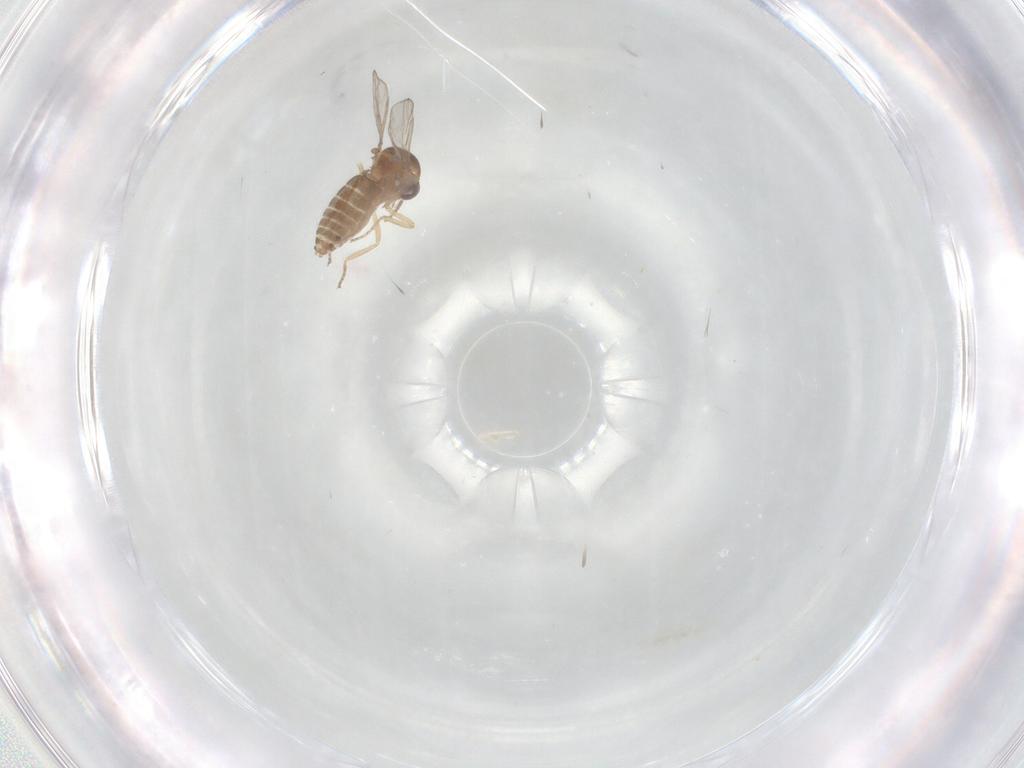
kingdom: Animalia
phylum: Arthropoda
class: Insecta
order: Diptera
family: Ceratopogonidae
